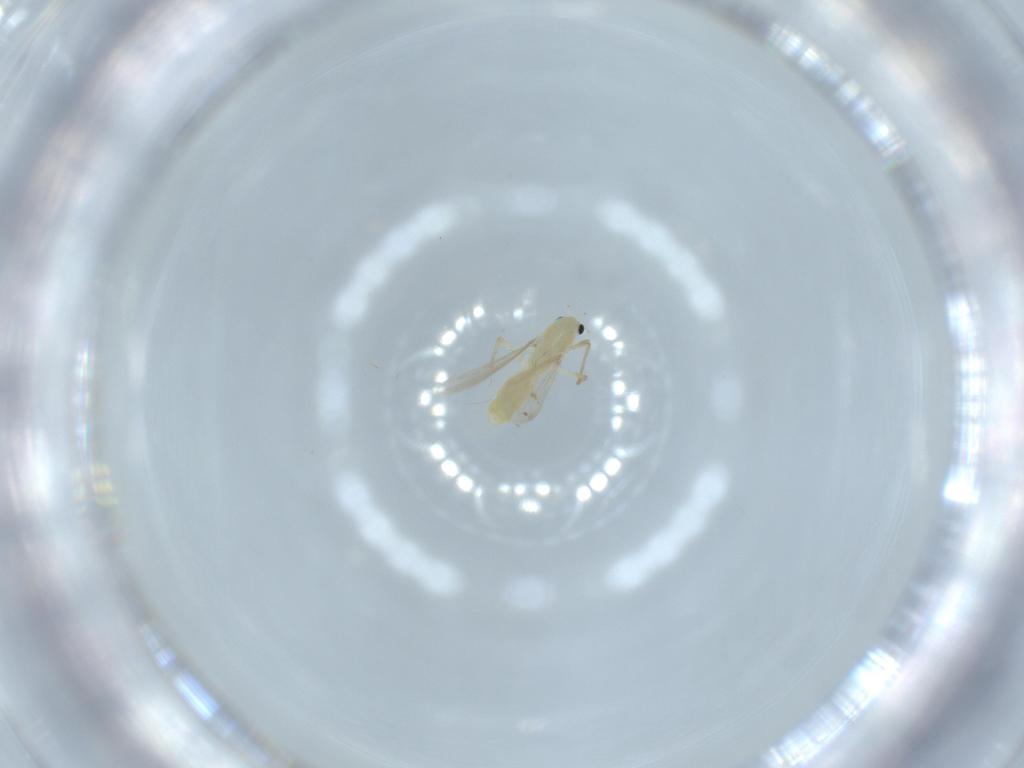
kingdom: Animalia
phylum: Arthropoda
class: Insecta
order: Diptera
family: Chironomidae
